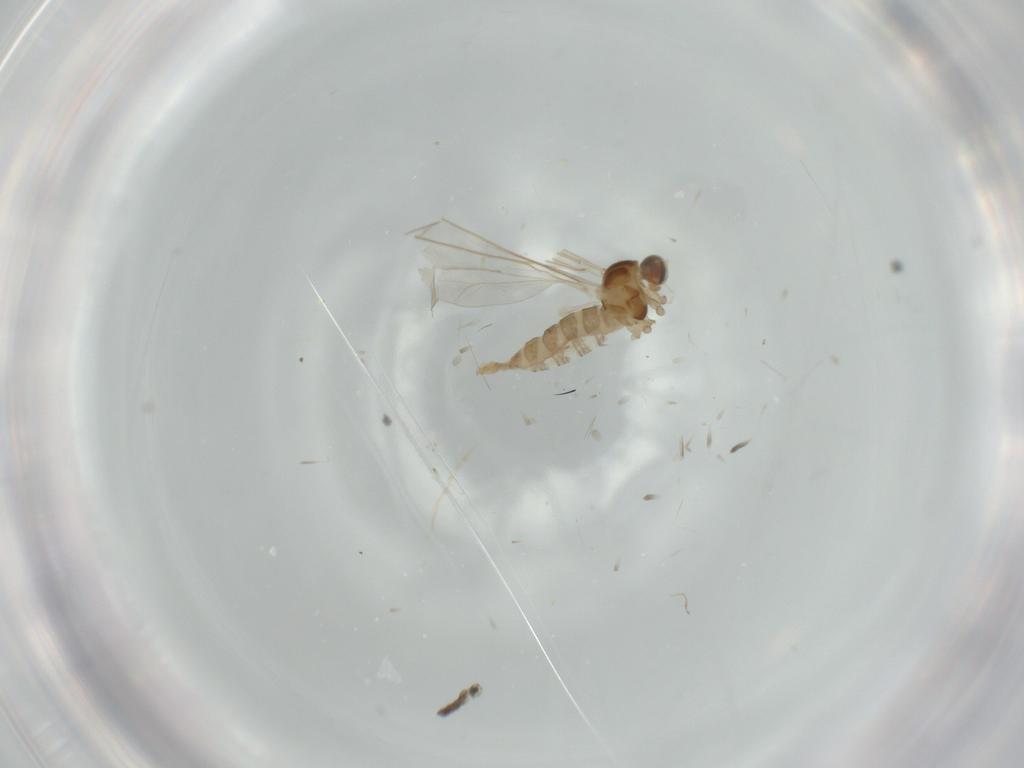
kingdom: Animalia
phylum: Arthropoda
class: Insecta
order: Diptera
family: Cecidomyiidae
